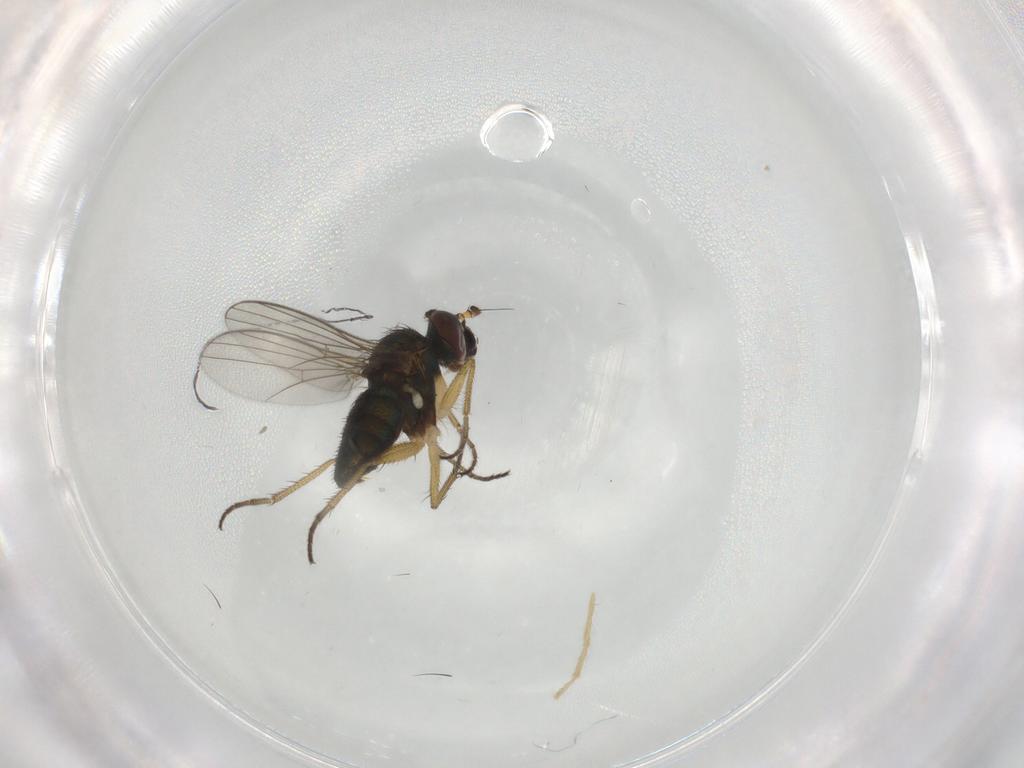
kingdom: Animalia
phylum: Arthropoda
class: Insecta
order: Diptera
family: Dolichopodidae
